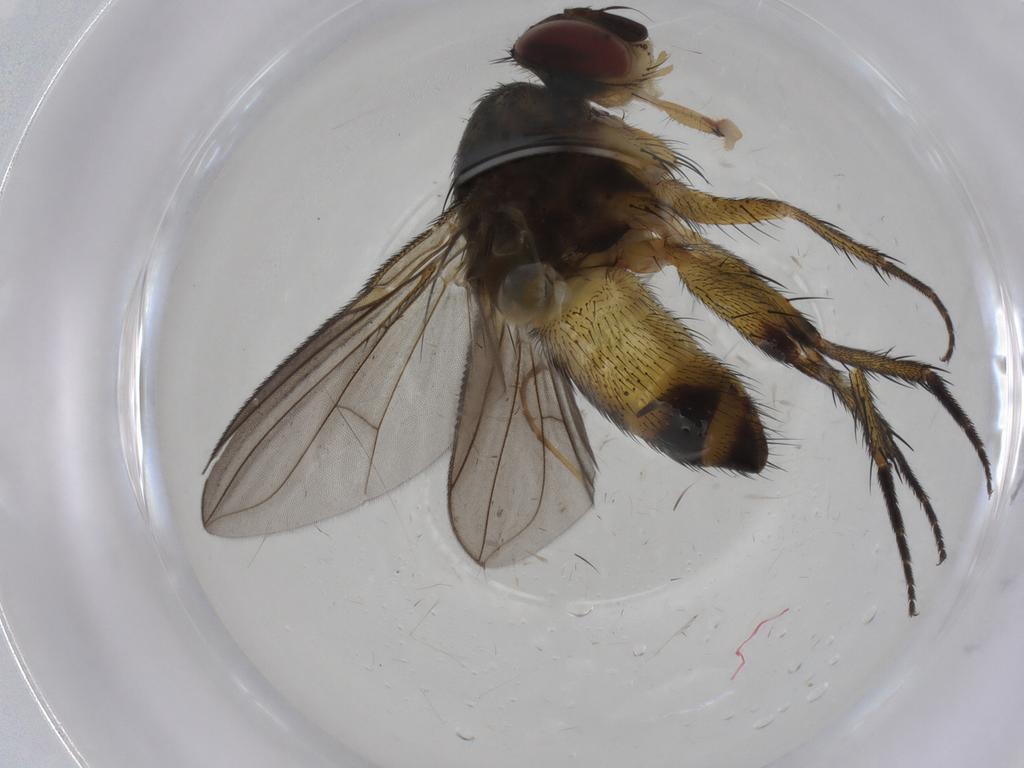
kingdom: Animalia
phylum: Arthropoda
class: Insecta
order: Diptera
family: Tachinidae
